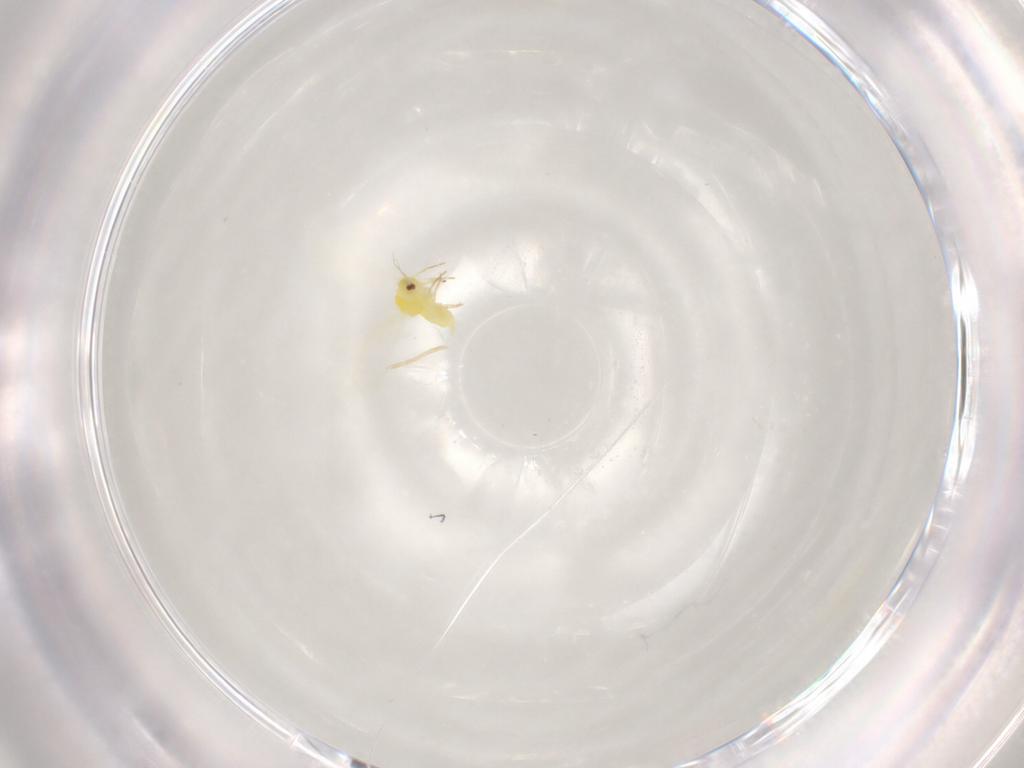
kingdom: Animalia
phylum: Arthropoda
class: Insecta
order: Hemiptera
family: Aleyrodidae
